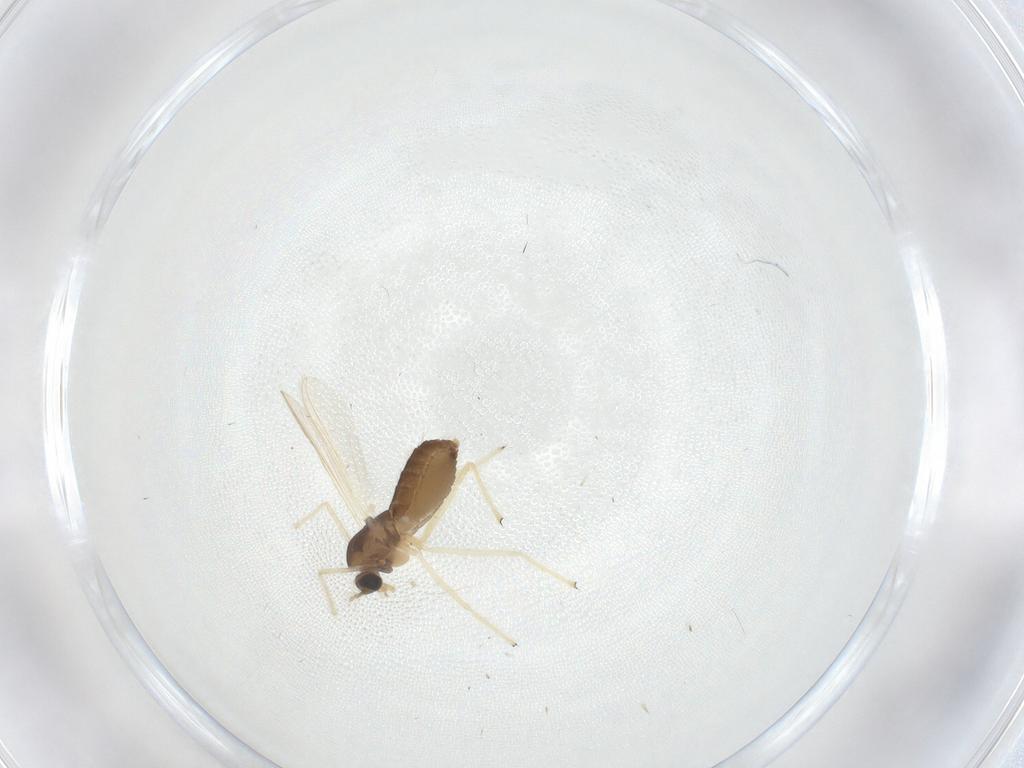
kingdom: Animalia
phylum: Arthropoda
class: Insecta
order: Diptera
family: Chironomidae
